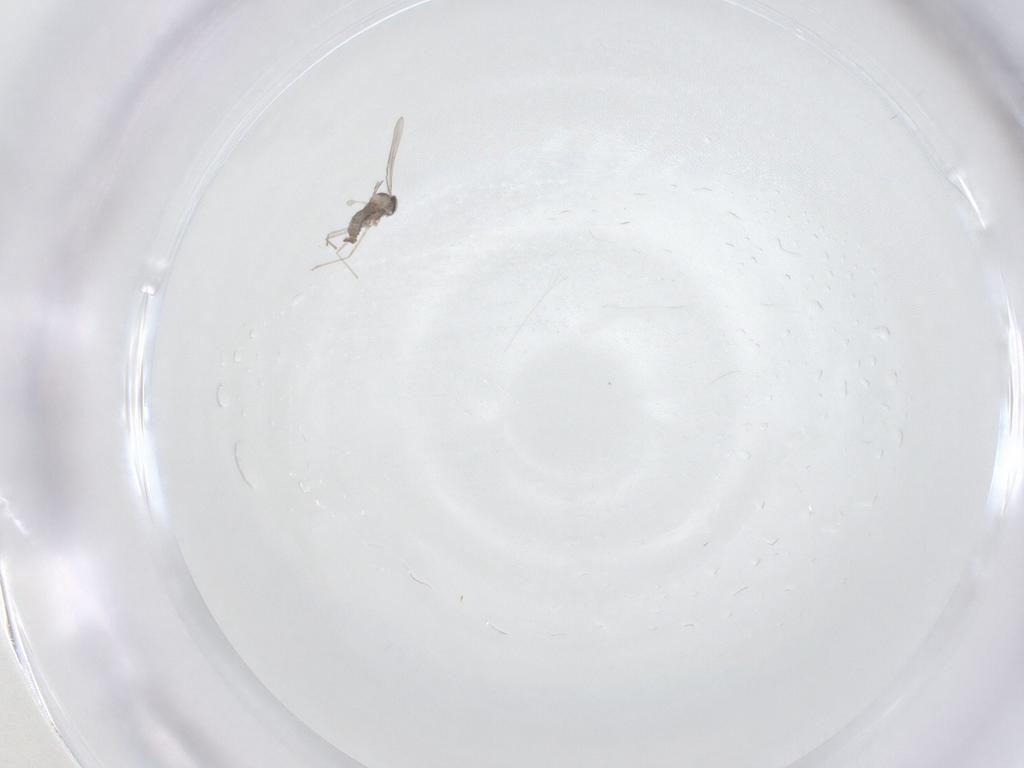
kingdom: Animalia
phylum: Arthropoda
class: Insecta
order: Diptera
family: Cecidomyiidae
